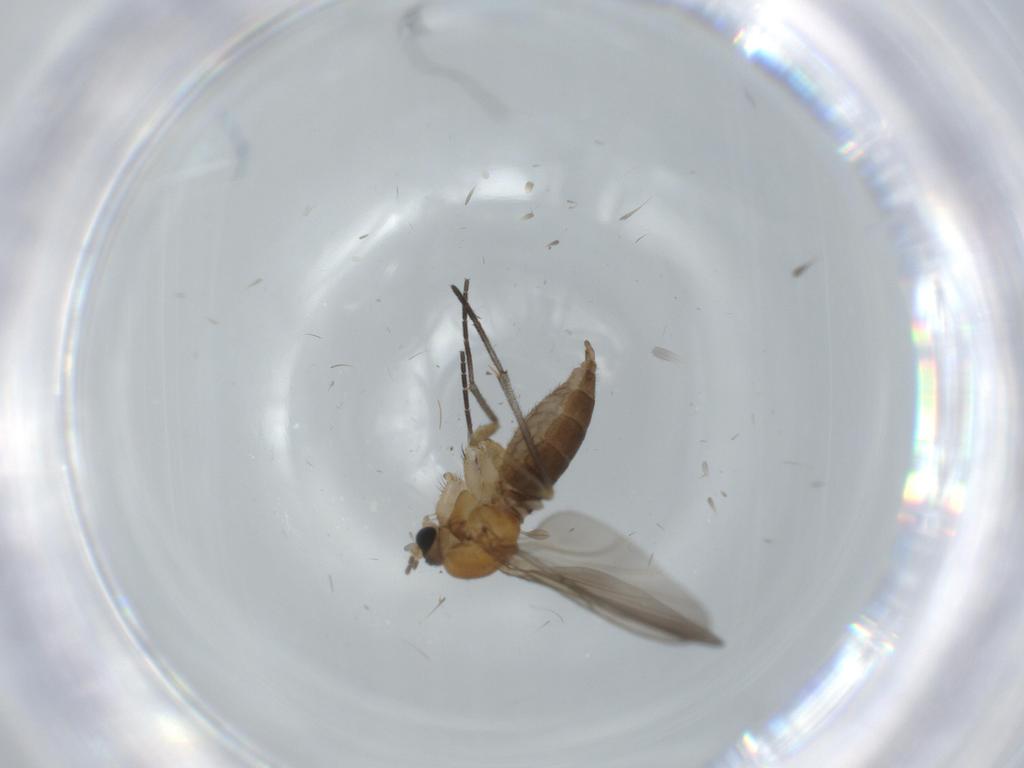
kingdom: Animalia
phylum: Arthropoda
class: Insecta
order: Diptera
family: Sciaridae
